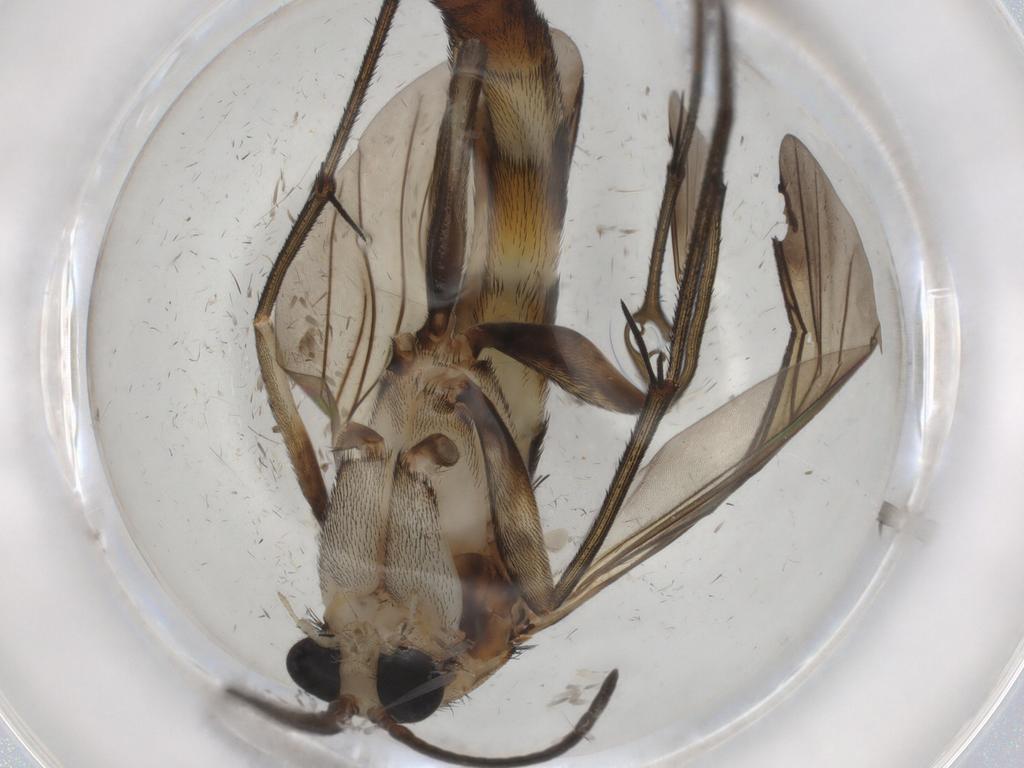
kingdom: Animalia
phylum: Arthropoda
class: Insecta
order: Diptera
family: Keroplatidae
